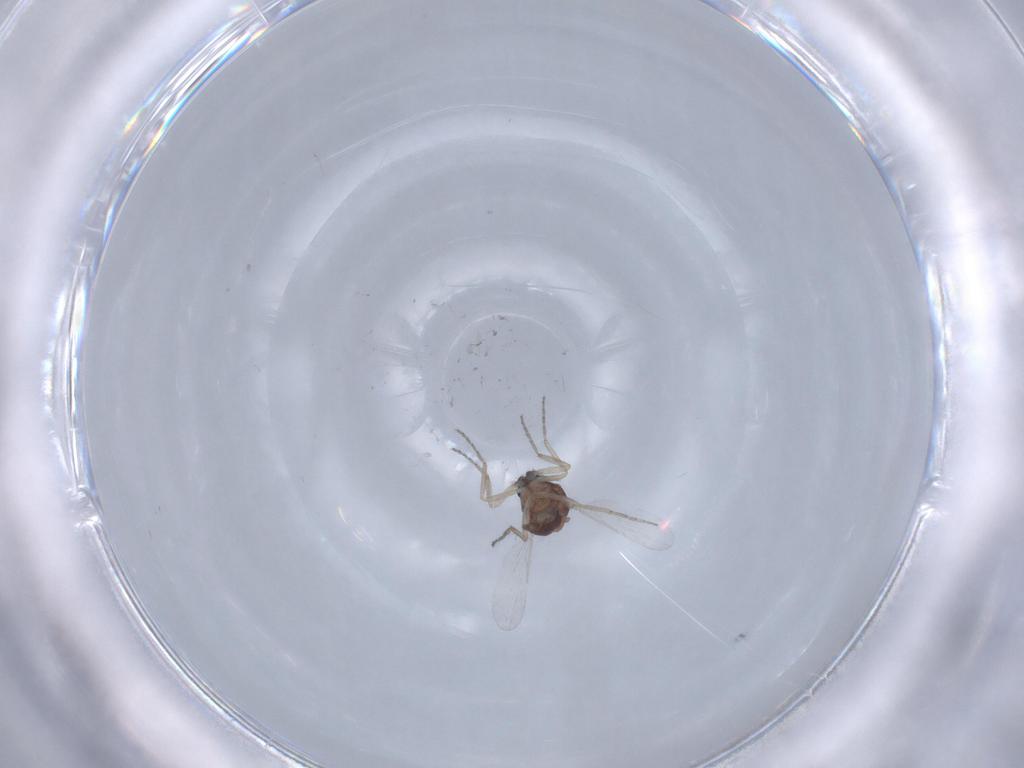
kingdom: Animalia
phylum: Arthropoda
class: Insecta
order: Diptera
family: Ceratopogonidae
